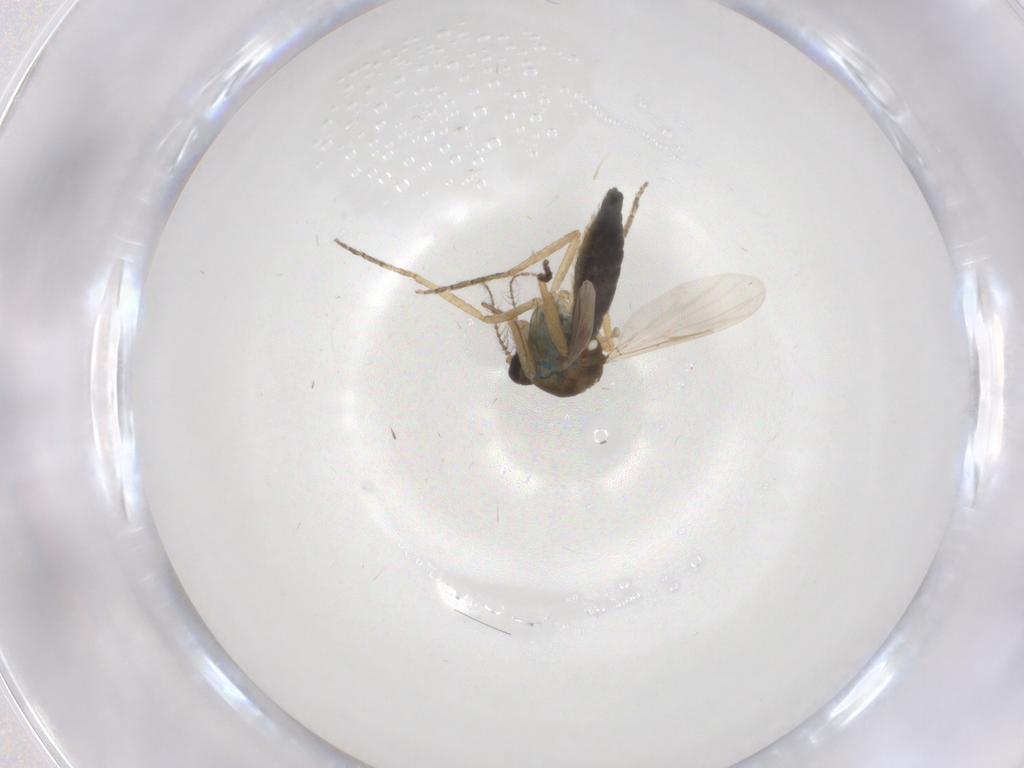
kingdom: Animalia
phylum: Arthropoda
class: Insecta
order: Diptera
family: Ceratopogonidae
